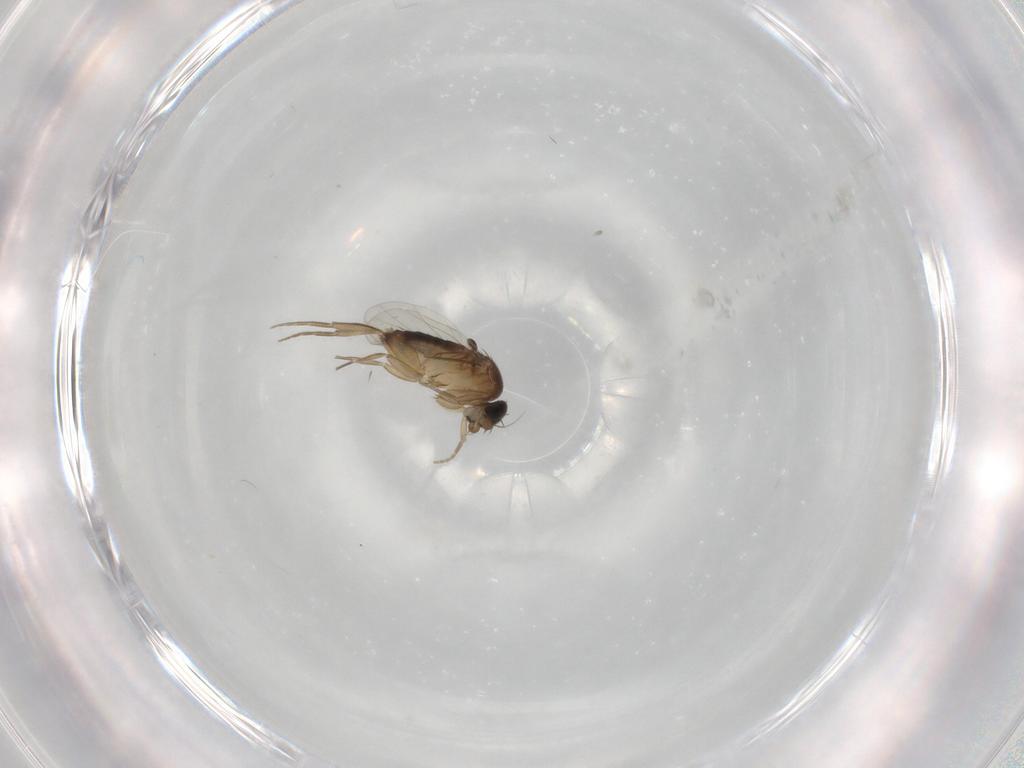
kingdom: Animalia
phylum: Arthropoda
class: Insecta
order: Diptera
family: Phoridae
